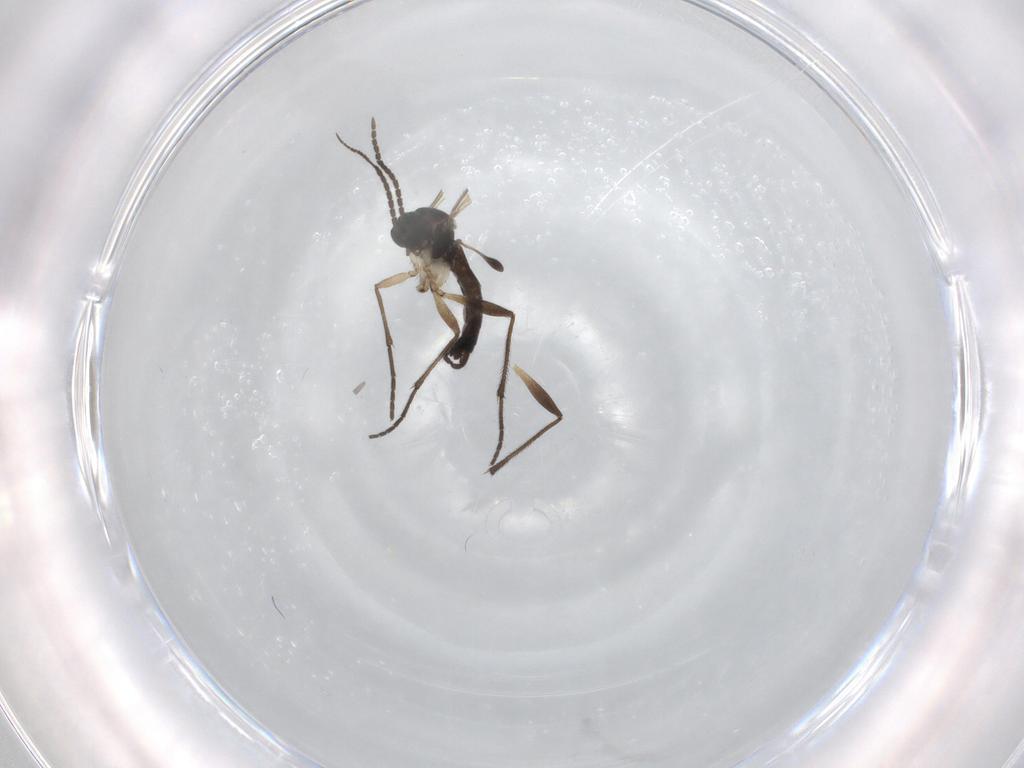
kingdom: Animalia
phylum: Arthropoda
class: Insecta
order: Diptera
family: Sciaridae
